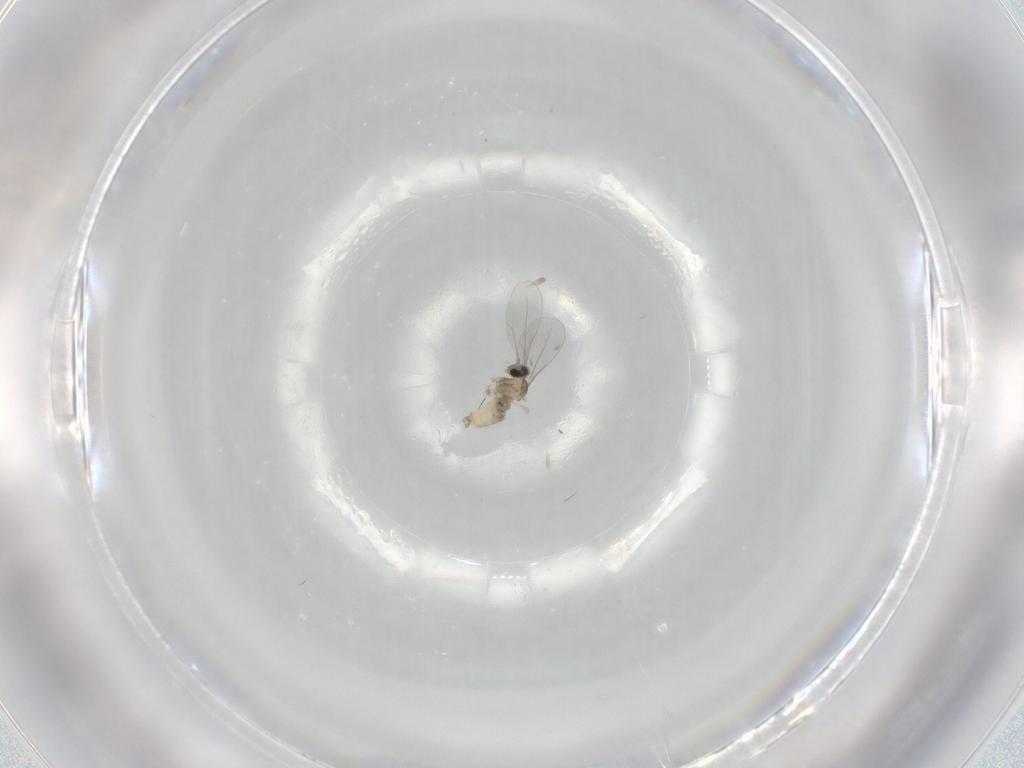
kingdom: Animalia
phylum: Arthropoda
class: Insecta
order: Diptera
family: Cecidomyiidae
